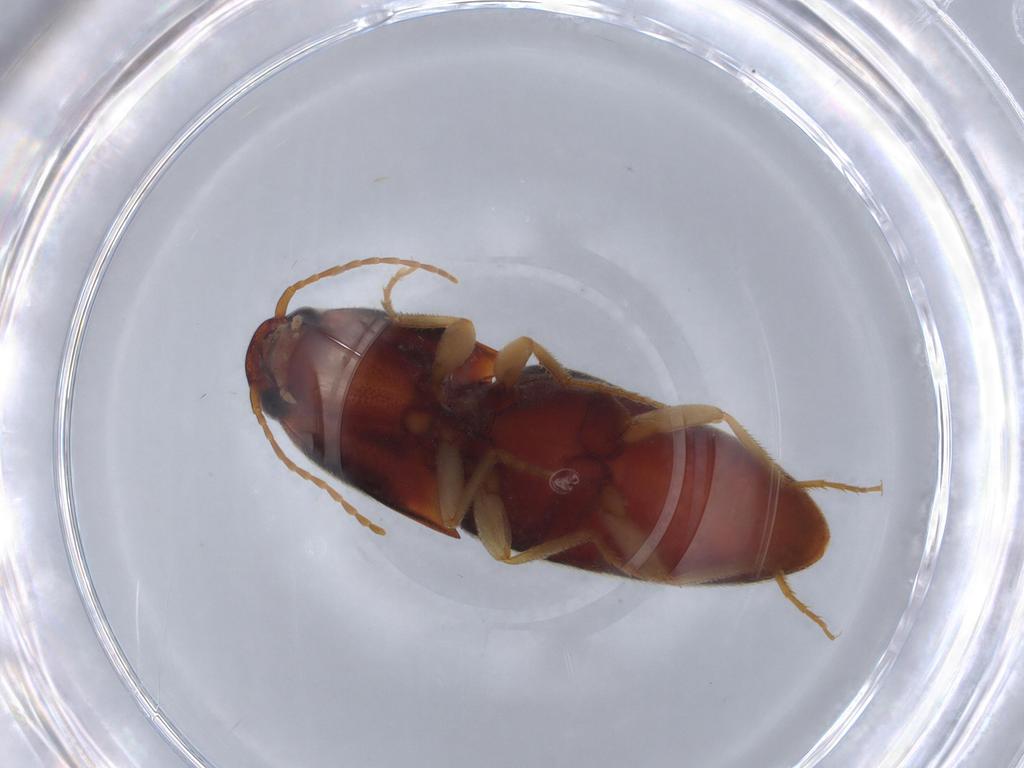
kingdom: Animalia
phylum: Arthropoda
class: Insecta
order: Coleoptera
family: Elateridae
